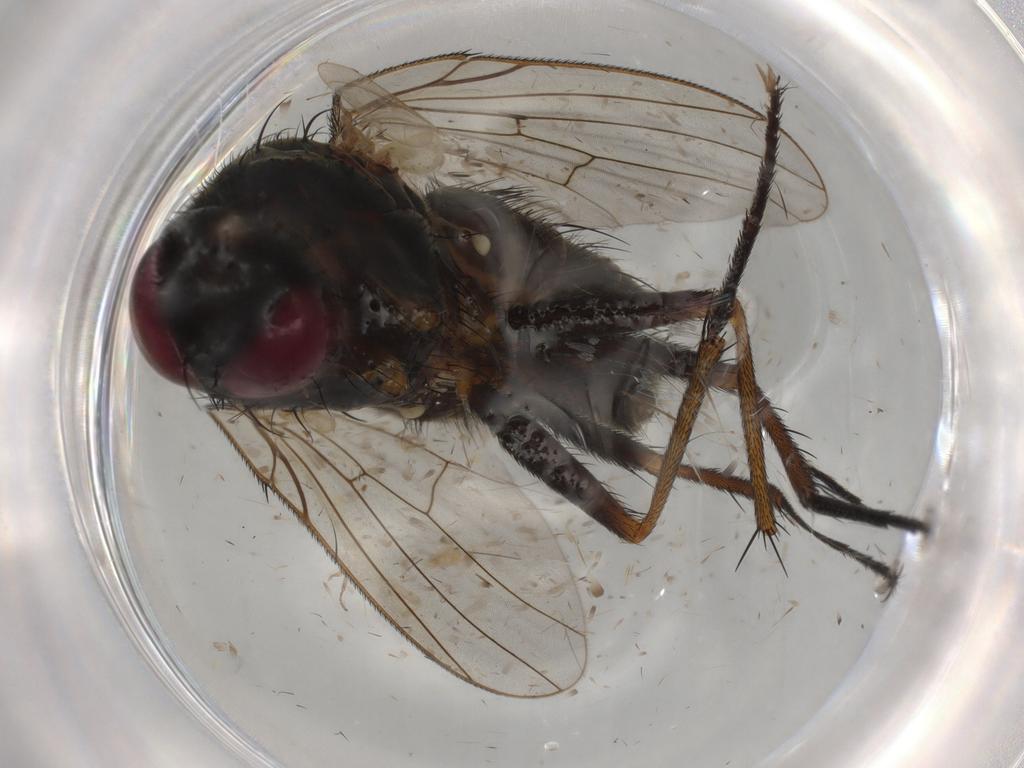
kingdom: Animalia
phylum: Arthropoda
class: Insecta
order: Diptera
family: Muscidae
